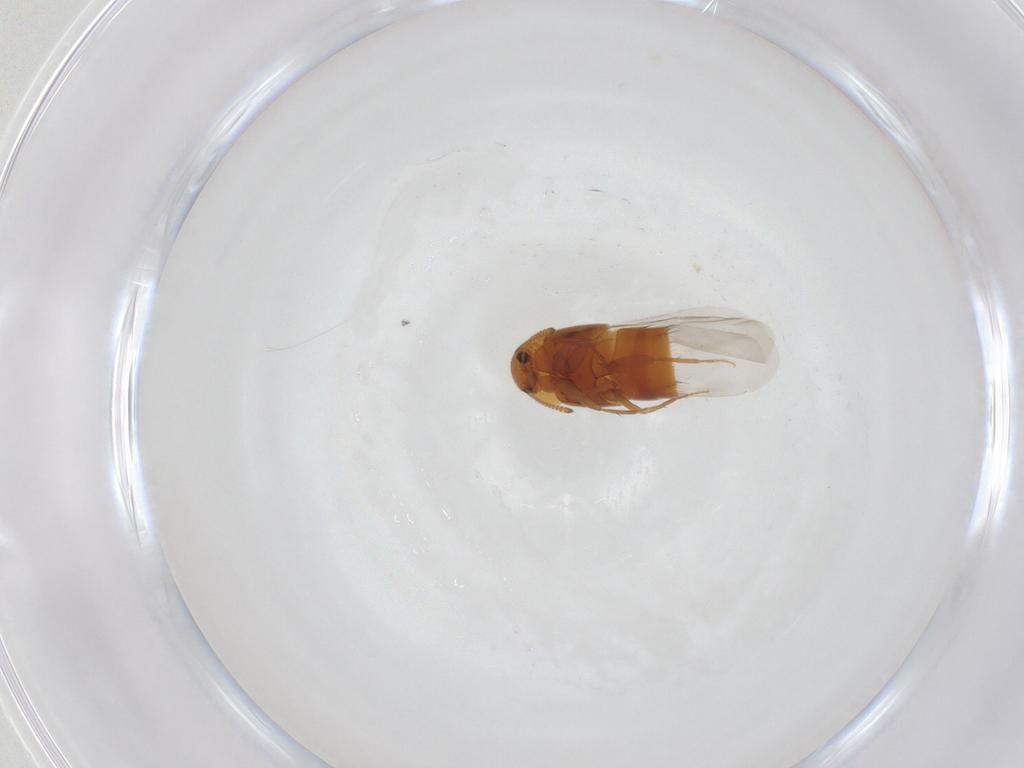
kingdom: Animalia
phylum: Arthropoda
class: Insecta
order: Coleoptera
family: Staphylinidae
